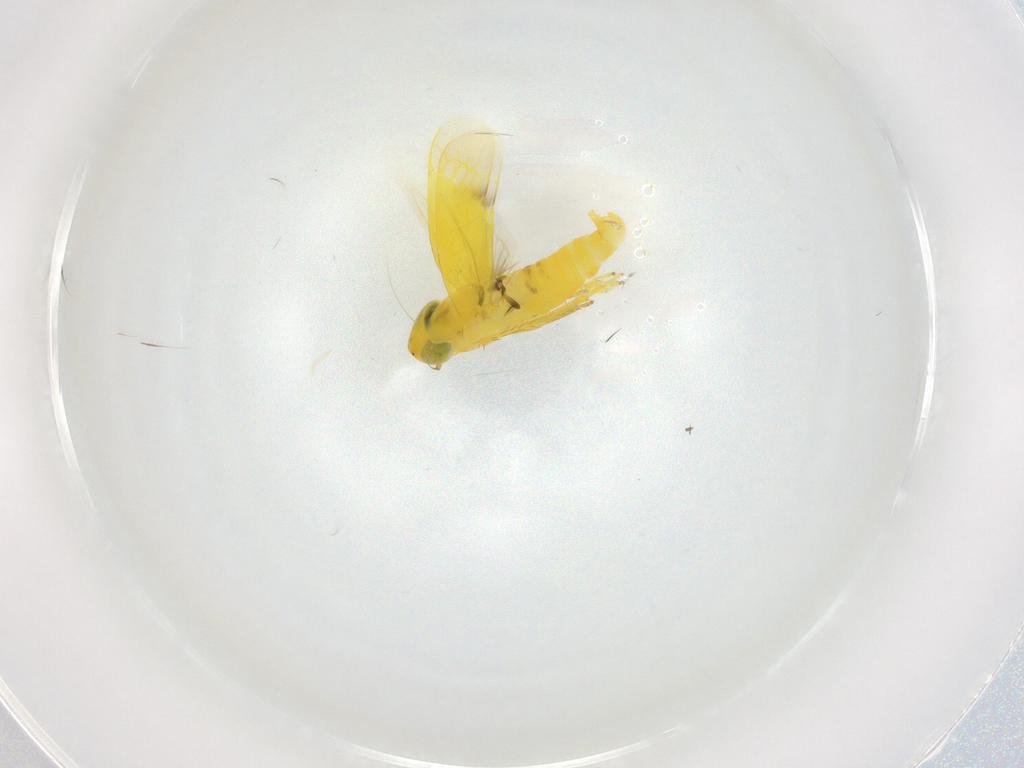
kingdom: Animalia
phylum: Arthropoda
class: Insecta
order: Hemiptera
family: Cicadellidae
